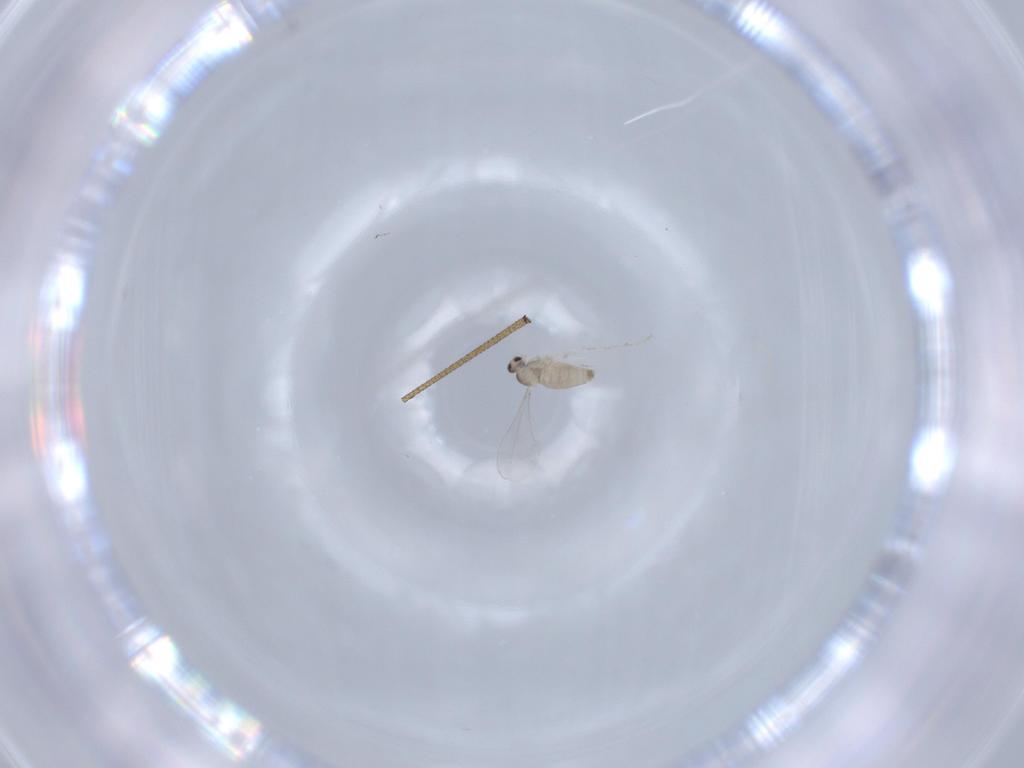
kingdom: Animalia
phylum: Arthropoda
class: Insecta
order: Diptera
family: Cecidomyiidae
